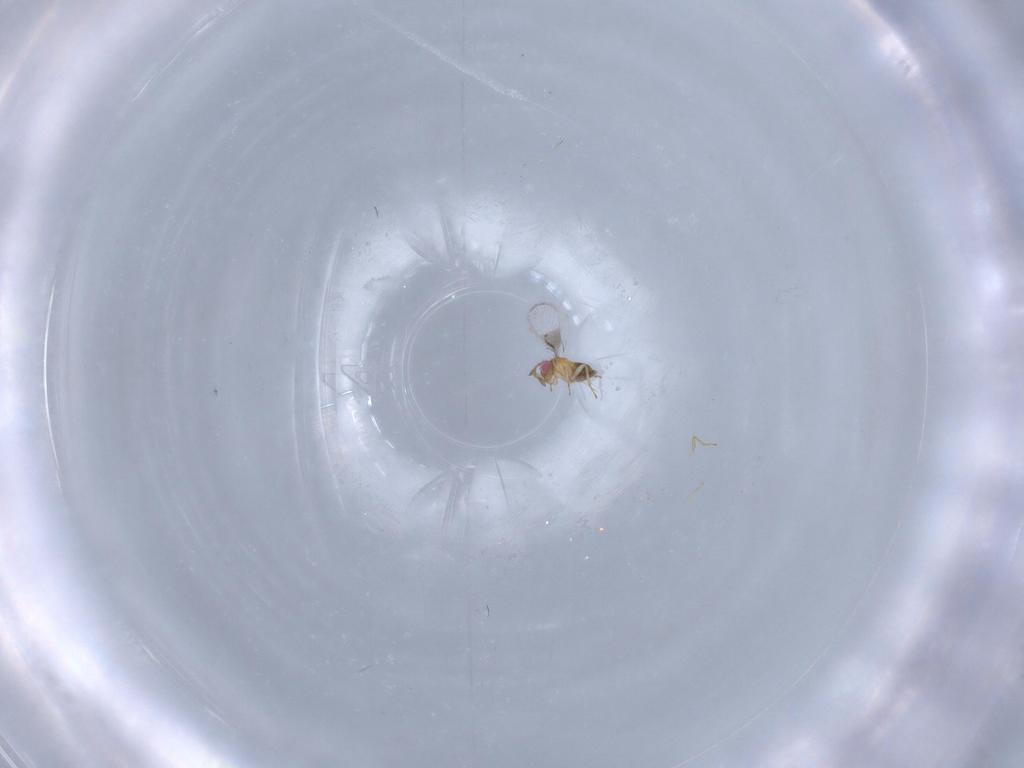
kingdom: Animalia
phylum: Arthropoda
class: Insecta
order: Hymenoptera
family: Trichogrammatidae
